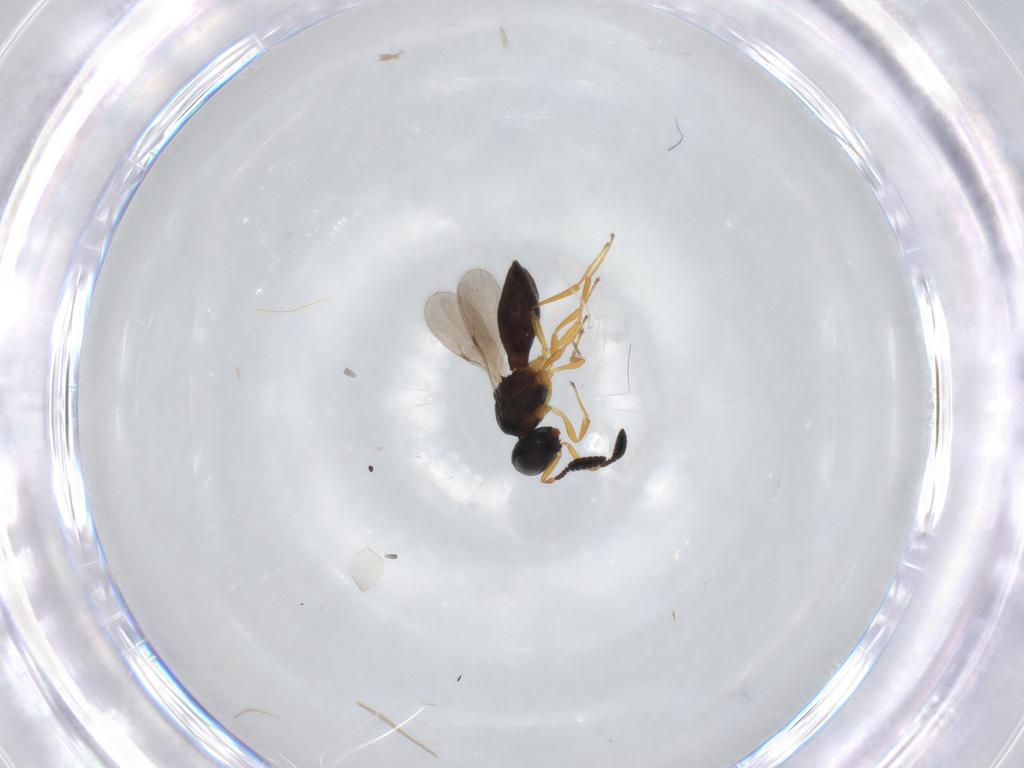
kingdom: Animalia
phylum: Arthropoda
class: Insecta
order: Hymenoptera
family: Scelionidae
